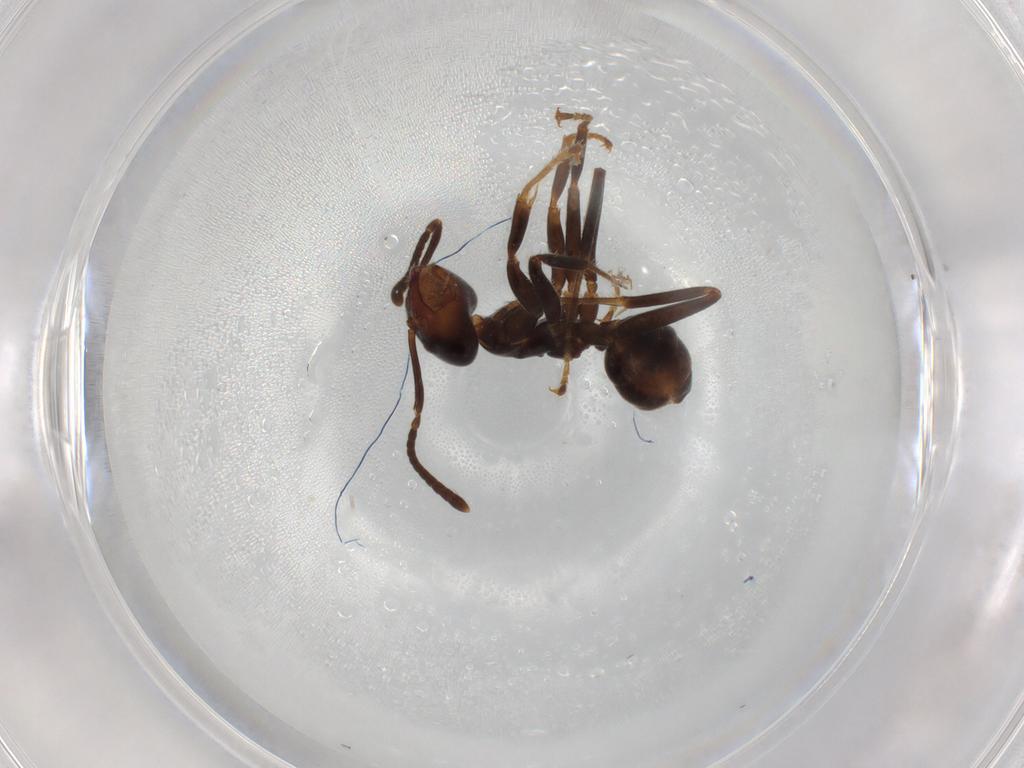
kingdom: Animalia
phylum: Arthropoda
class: Insecta
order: Hymenoptera
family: Formicidae
